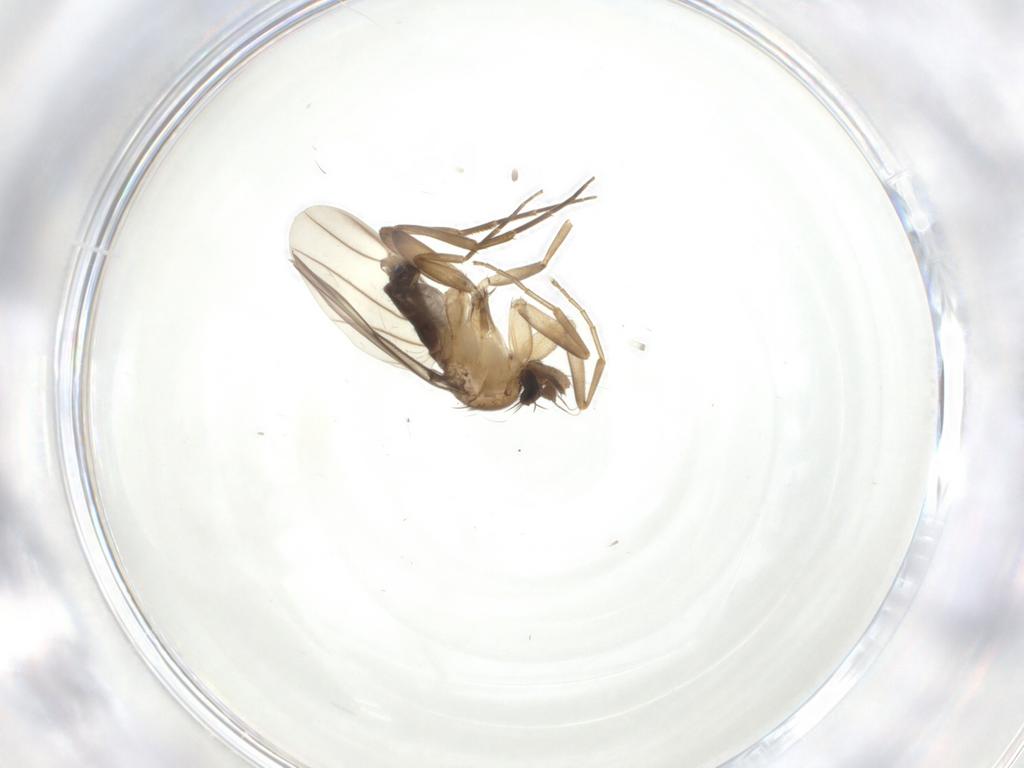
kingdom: Animalia
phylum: Arthropoda
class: Insecta
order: Diptera
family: Phoridae
